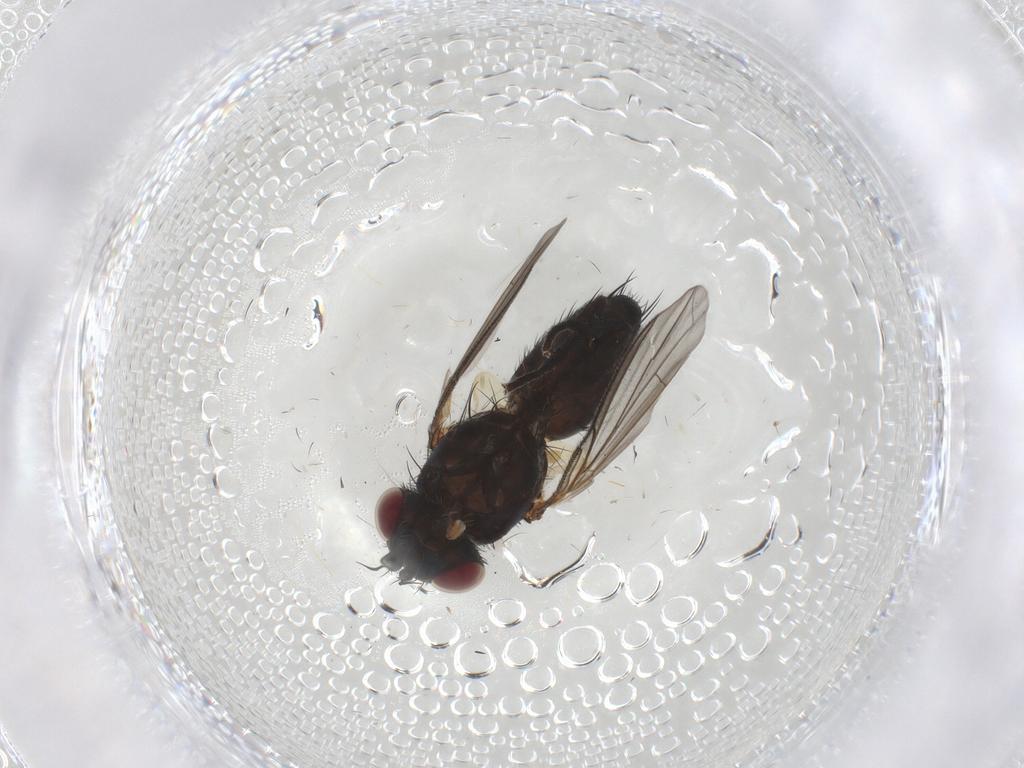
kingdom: Animalia
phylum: Arthropoda
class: Insecta
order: Diptera
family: Tachinidae
